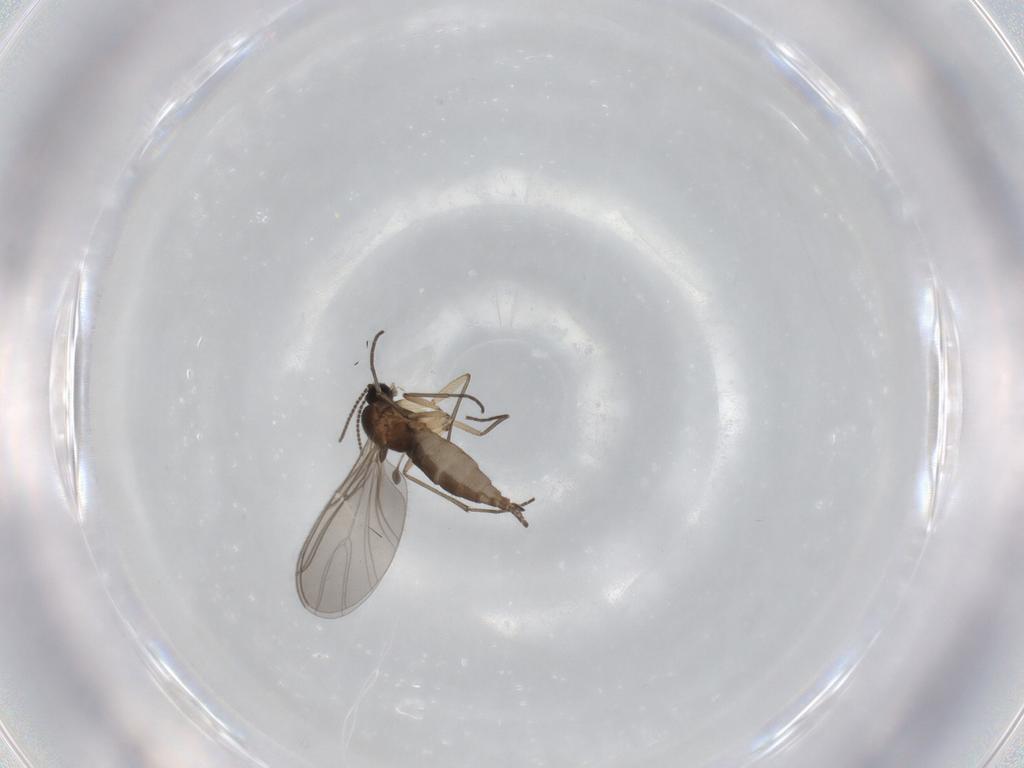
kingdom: Animalia
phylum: Arthropoda
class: Insecta
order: Diptera
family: Sciaridae
